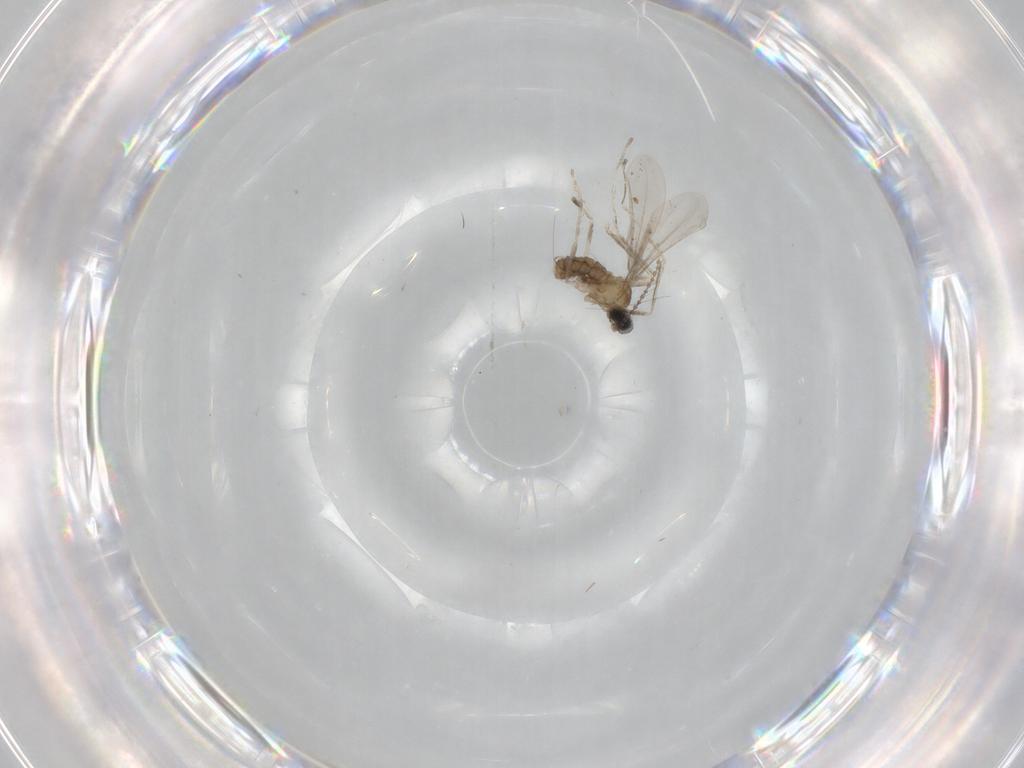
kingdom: Animalia
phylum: Arthropoda
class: Insecta
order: Diptera
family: Cecidomyiidae
